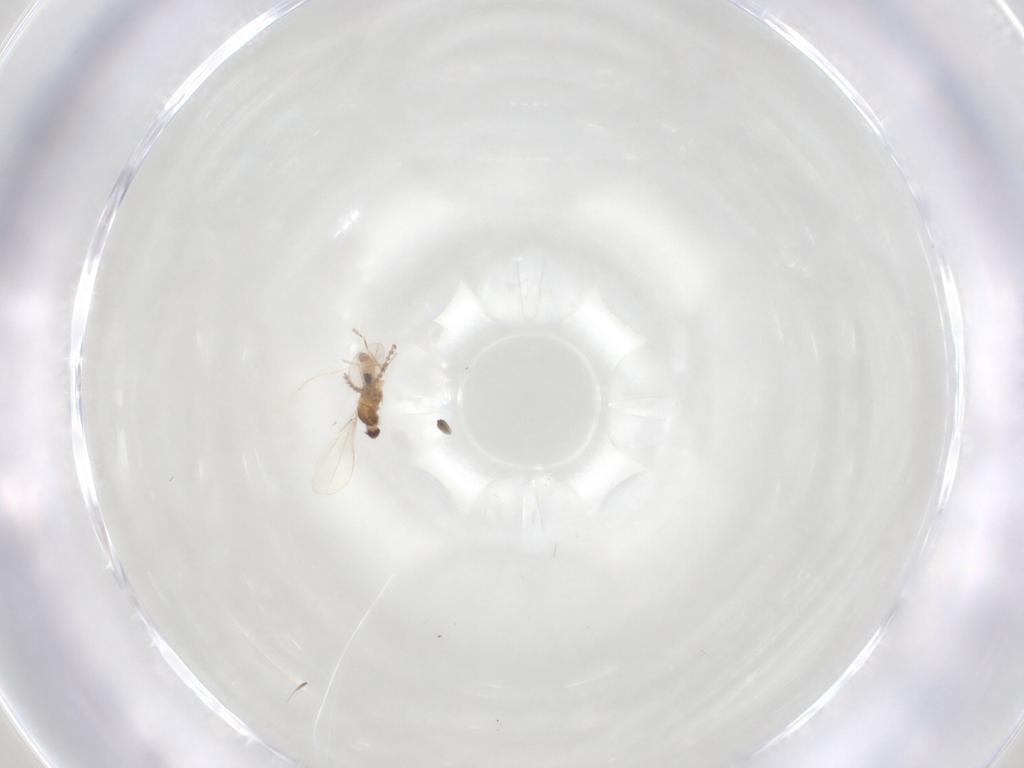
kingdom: Animalia
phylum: Arthropoda
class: Insecta
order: Diptera
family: Cecidomyiidae
